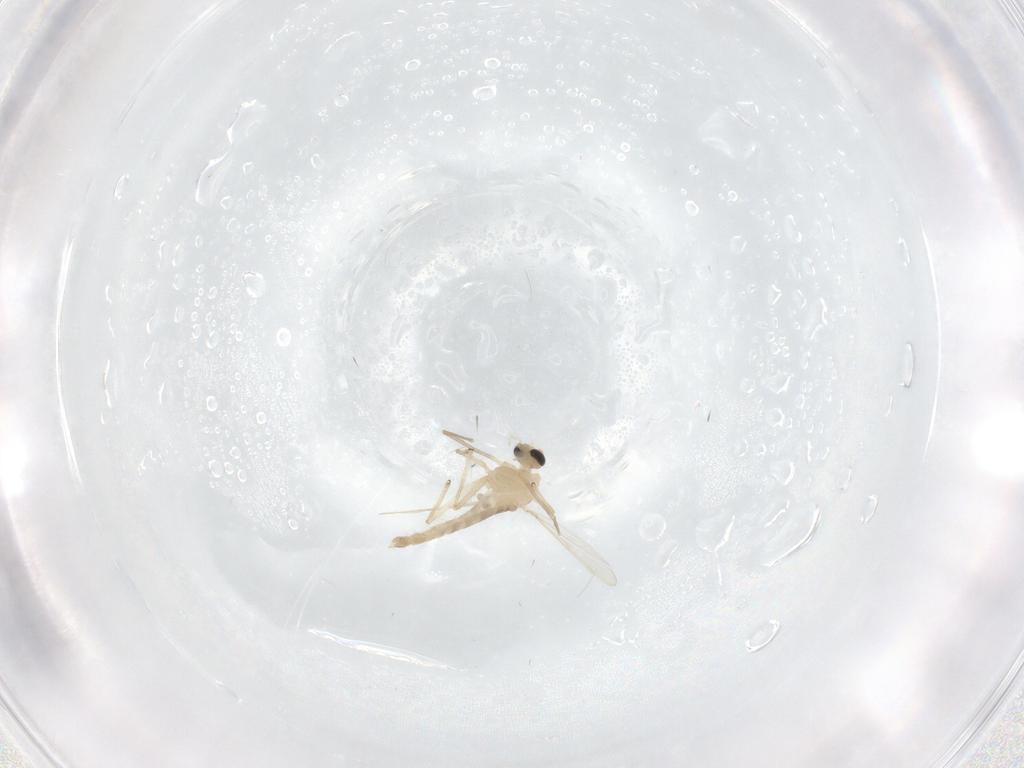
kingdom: Animalia
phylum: Arthropoda
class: Insecta
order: Diptera
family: Chironomidae
